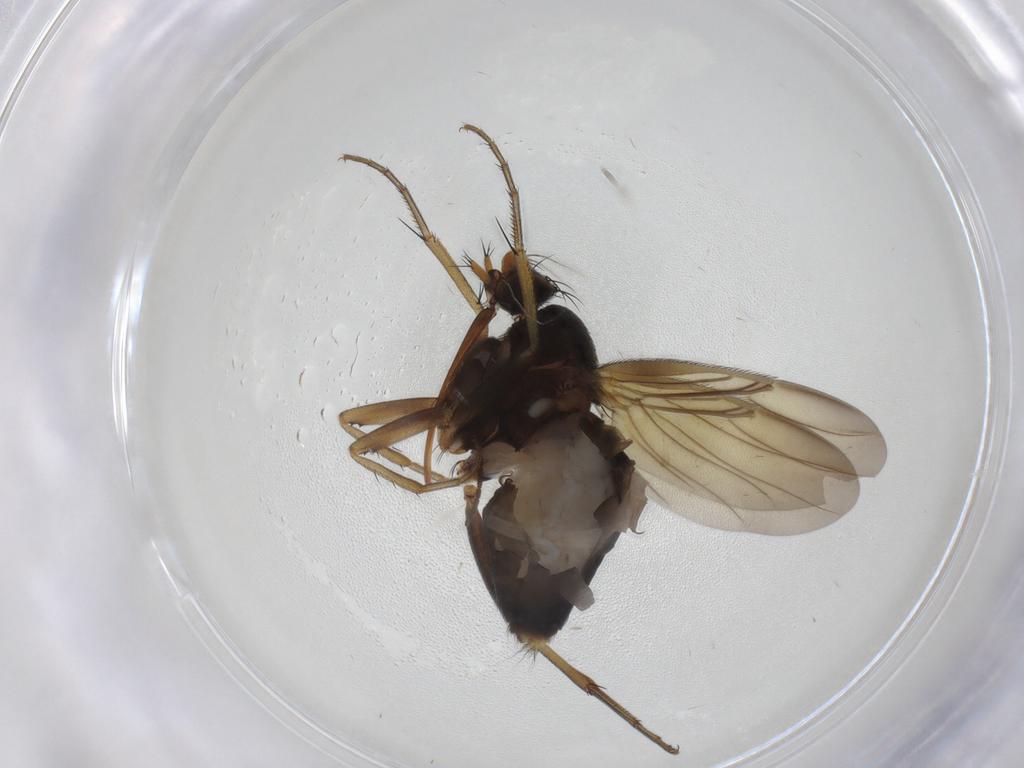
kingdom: Animalia
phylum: Arthropoda
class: Insecta
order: Diptera
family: Phoridae
